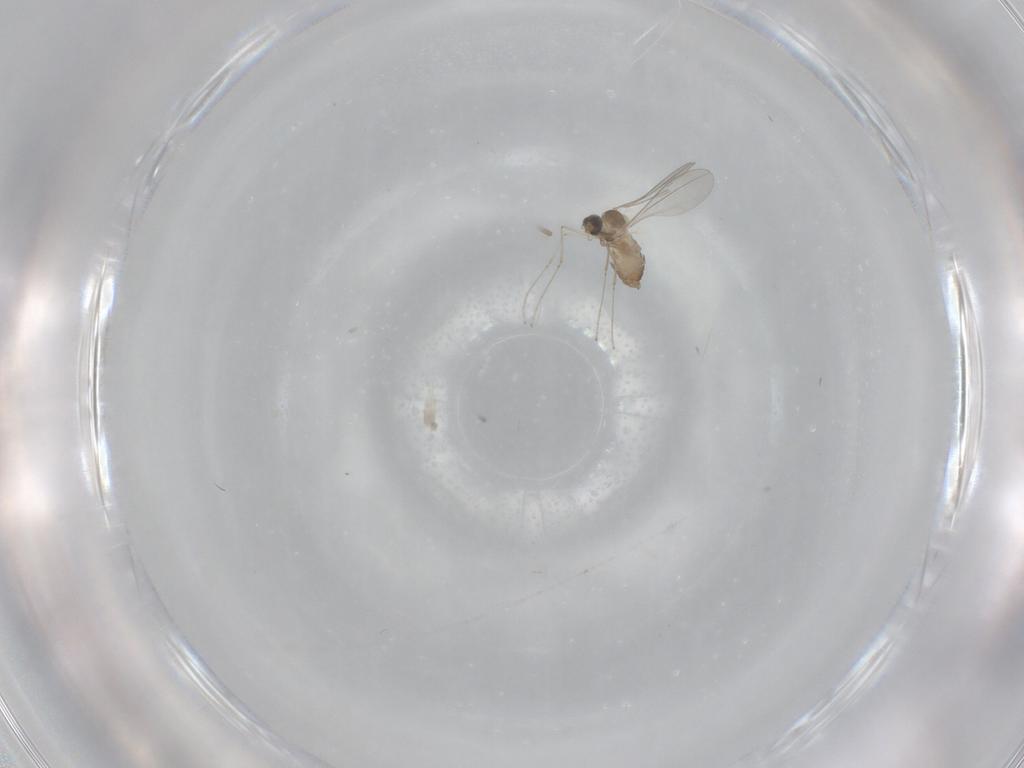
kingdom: Animalia
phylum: Arthropoda
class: Insecta
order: Diptera
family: Cecidomyiidae
